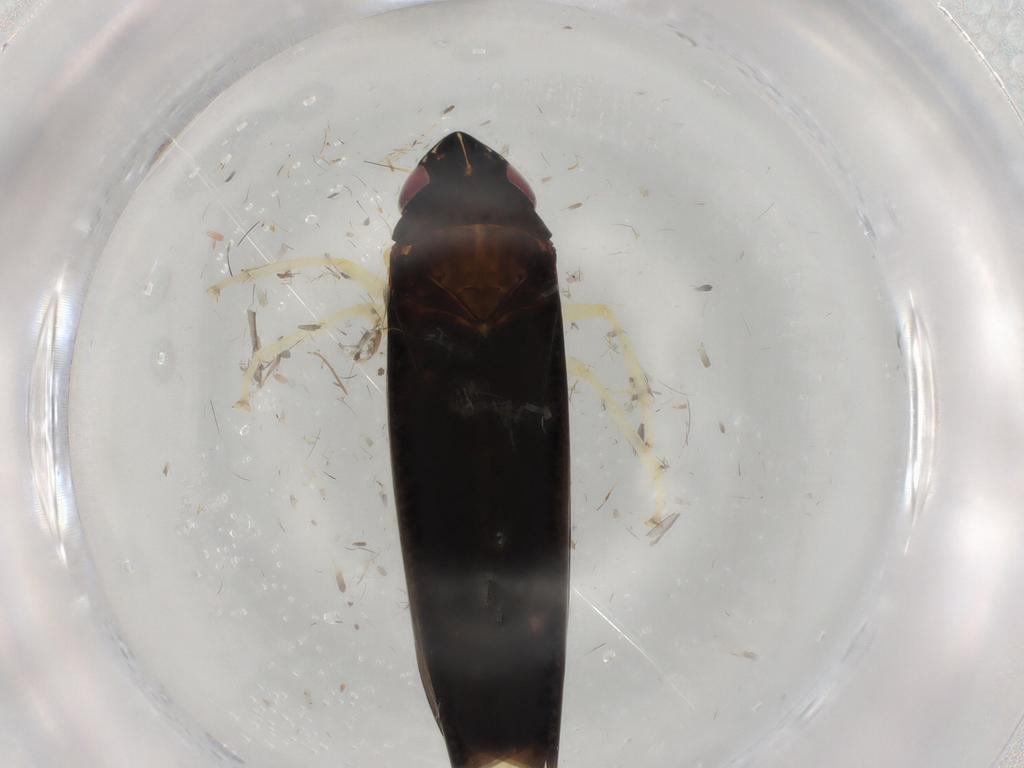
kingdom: Animalia
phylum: Arthropoda
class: Insecta
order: Hemiptera
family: Cicadellidae
